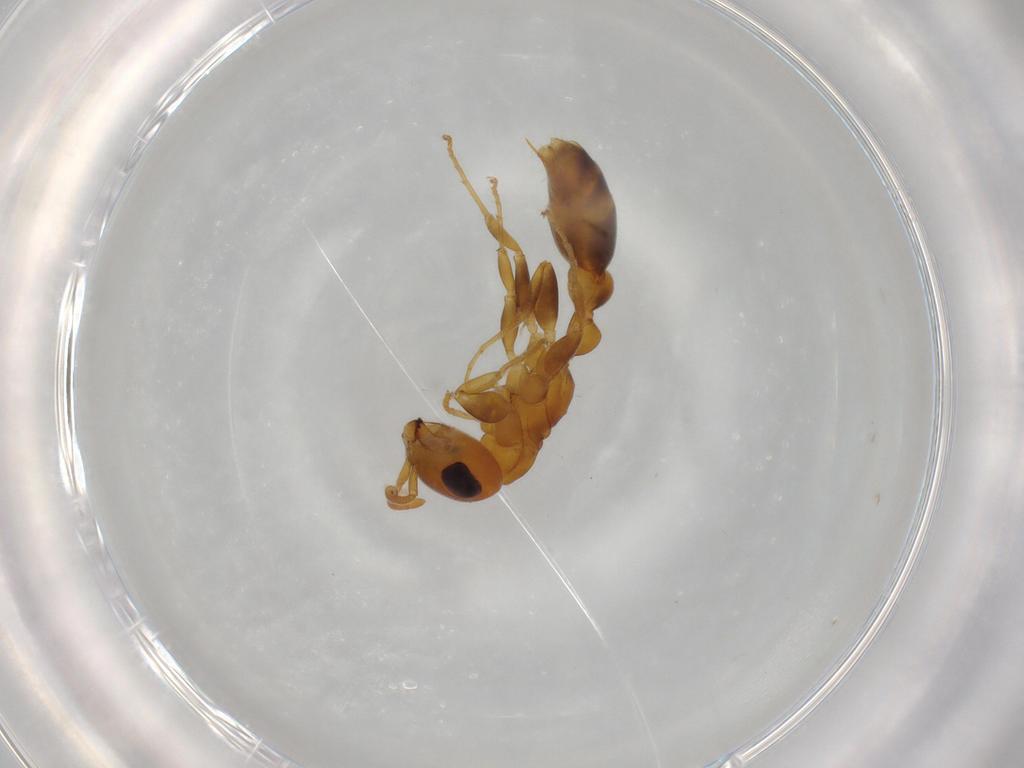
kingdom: Animalia
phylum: Arthropoda
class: Insecta
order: Hymenoptera
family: Formicidae
